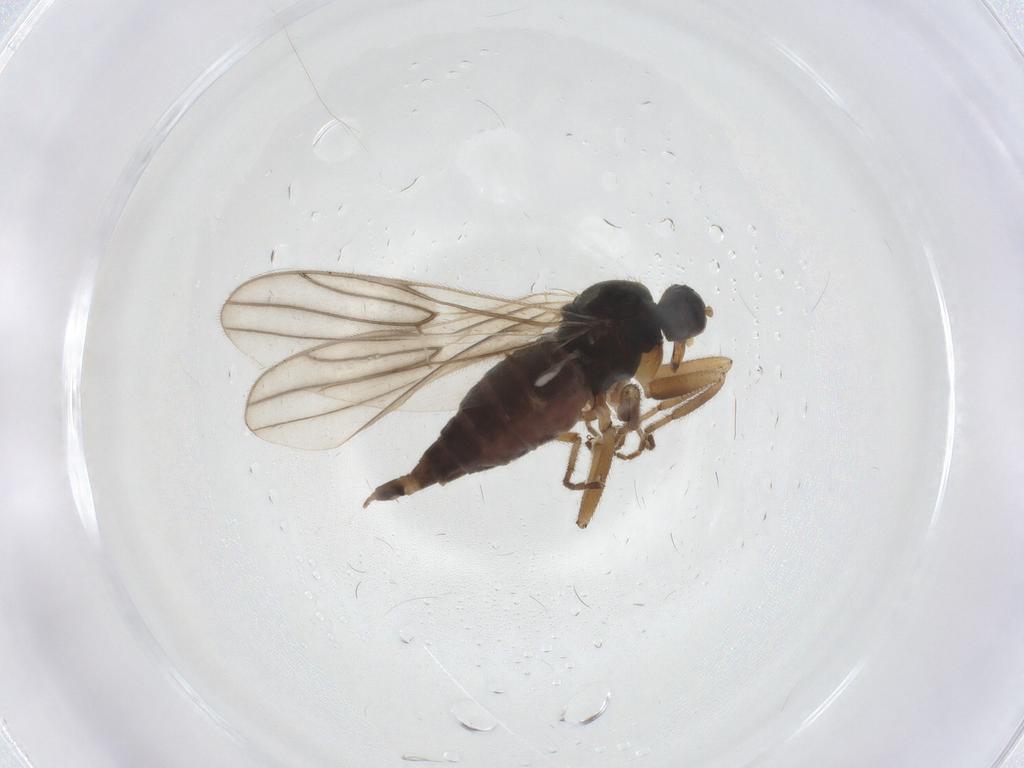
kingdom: Animalia
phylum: Arthropoda
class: Insecta
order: Diptera
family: Hybotidae
